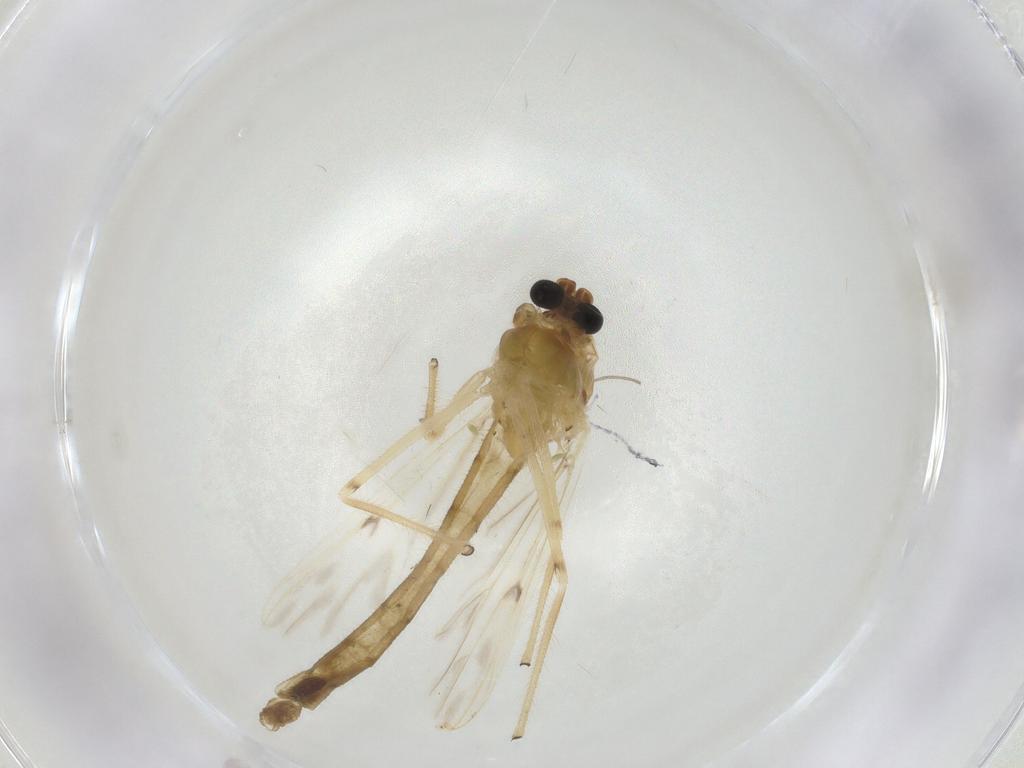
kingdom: Animalia
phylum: Arthropoda
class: Insecta
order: Diptera
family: Chironomidae
